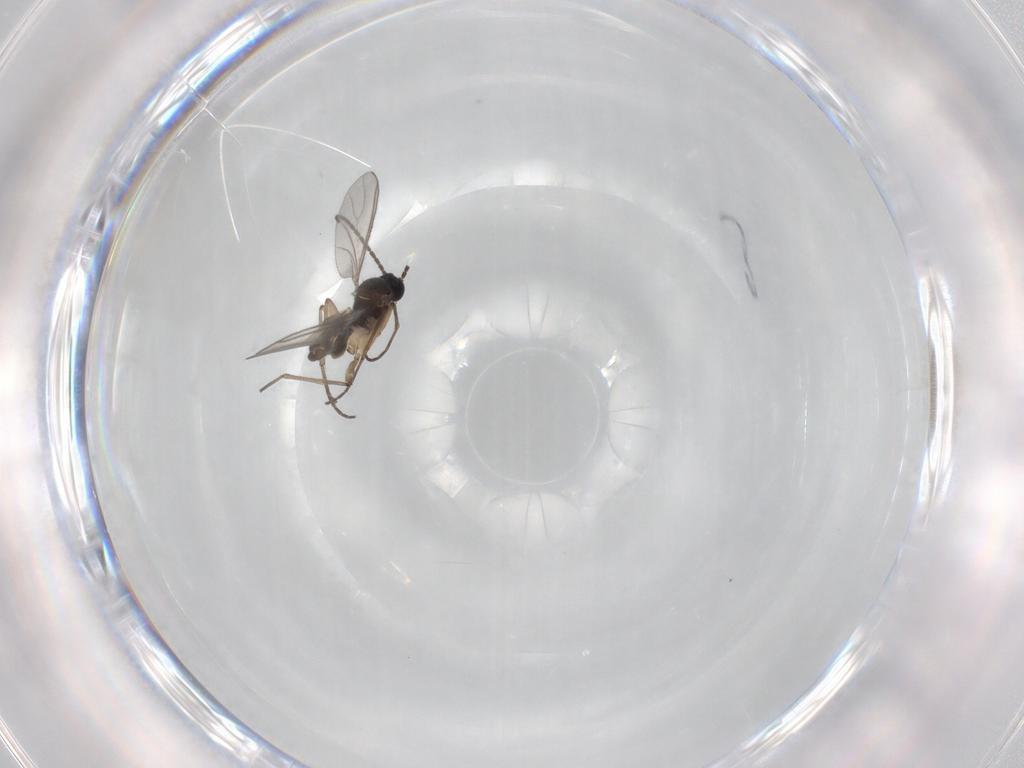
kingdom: Animalia
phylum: Arthropoda
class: Insecta
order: Diptera
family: Sciaridae
